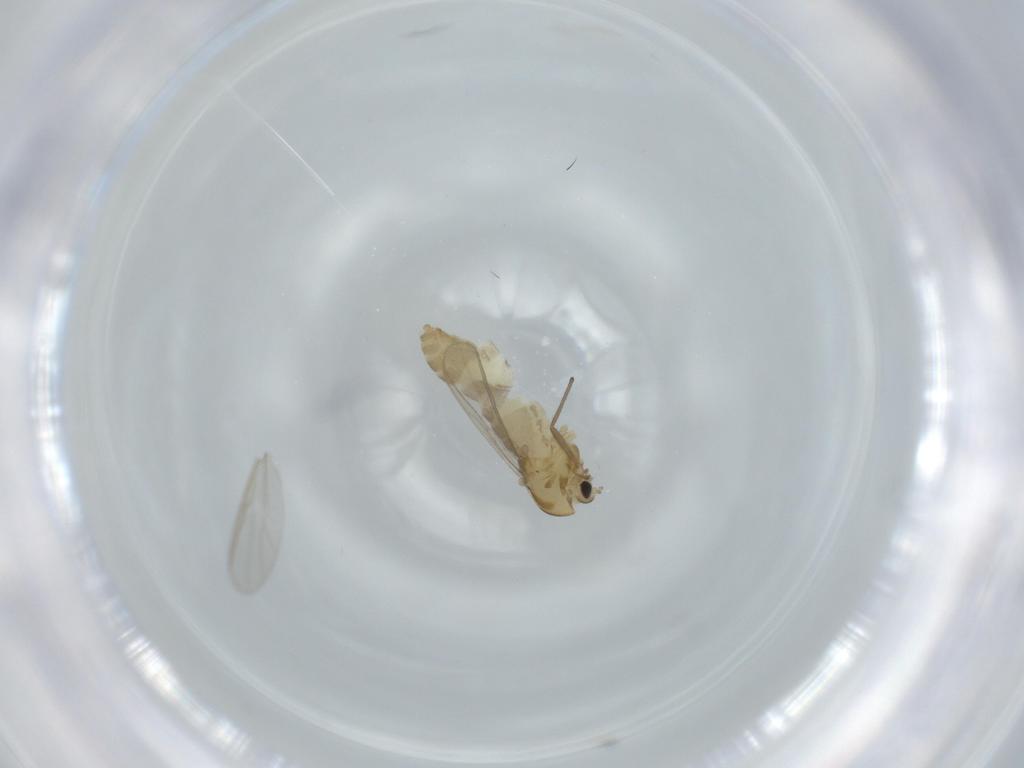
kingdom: Animalia
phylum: Arthropoda
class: Insecta
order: Diptera
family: Chironomidae
